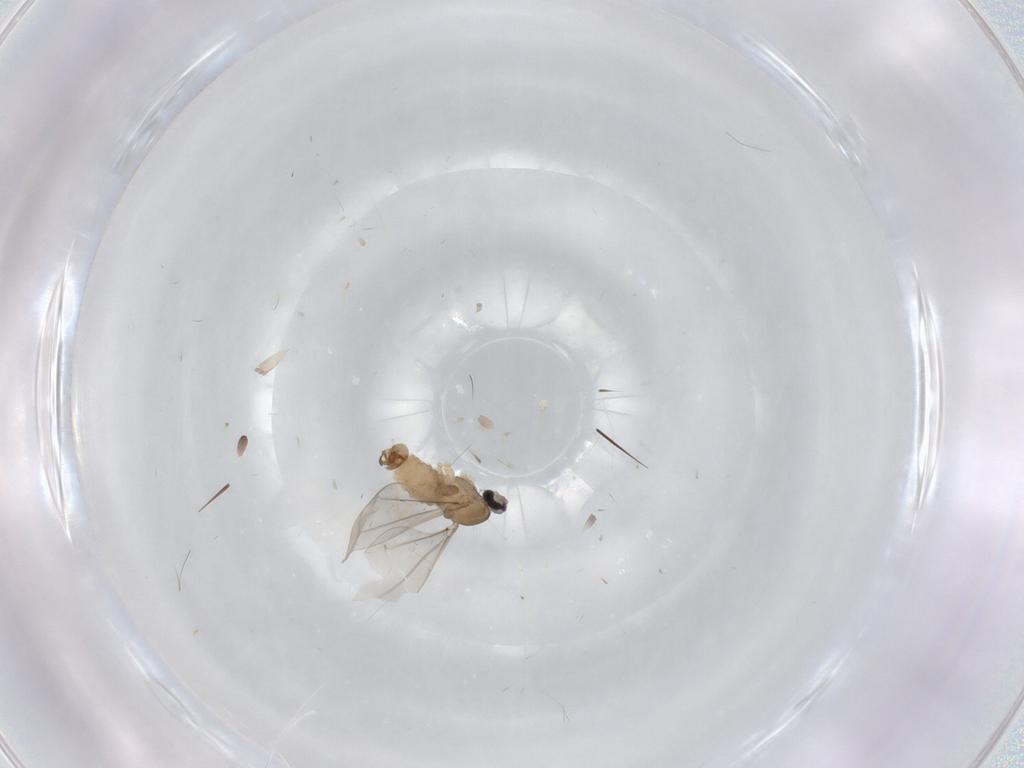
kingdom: Animalia
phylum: Arthropoda
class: Insecta
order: Diptera
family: Cecidomyiidae
